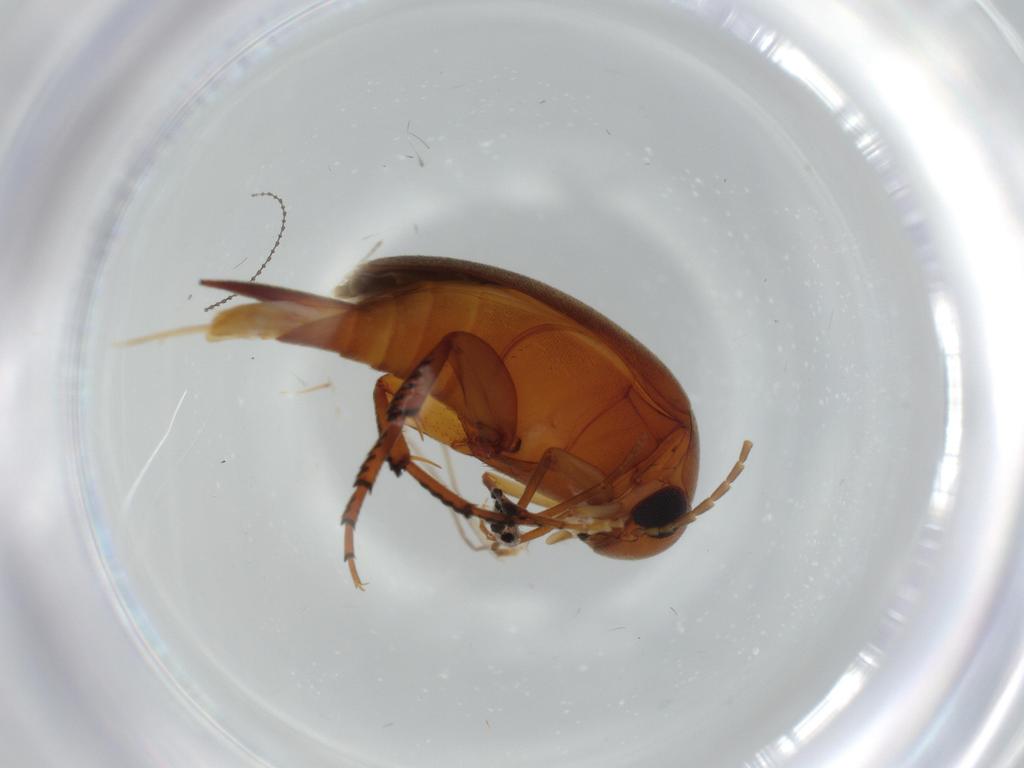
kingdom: Animalia
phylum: Arthropoda
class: Insecta
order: Coleoptera
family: Mordellidae
